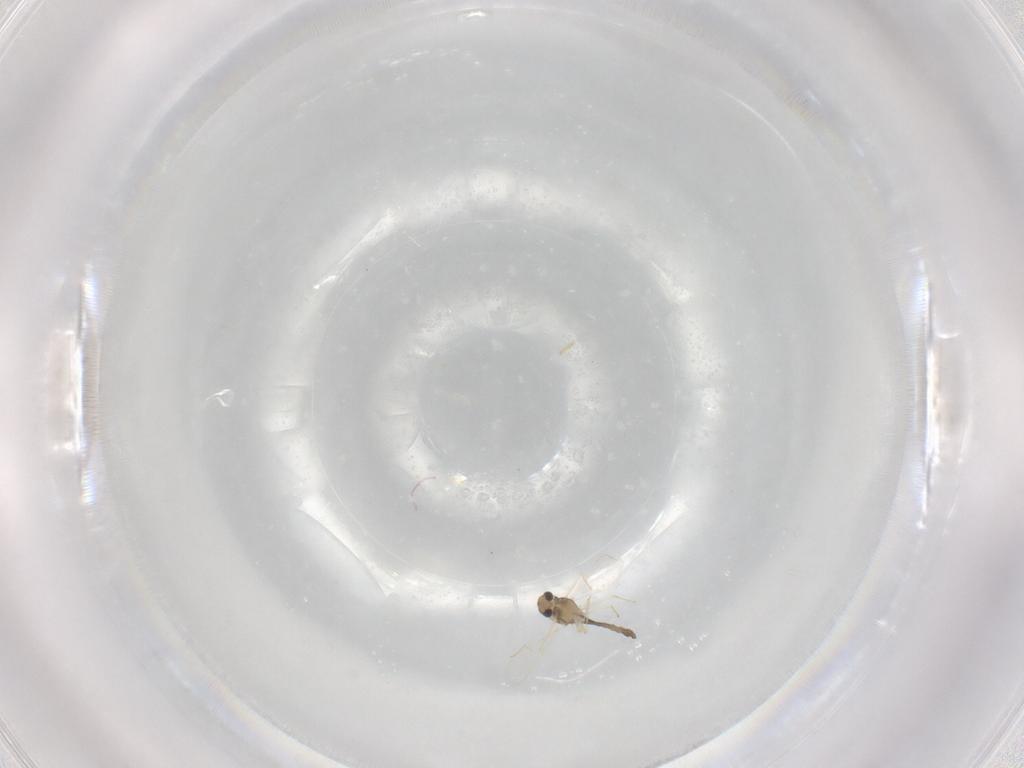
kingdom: Animalia
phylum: Arthropoda
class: Insecta
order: Diptera
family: Chironomidae
